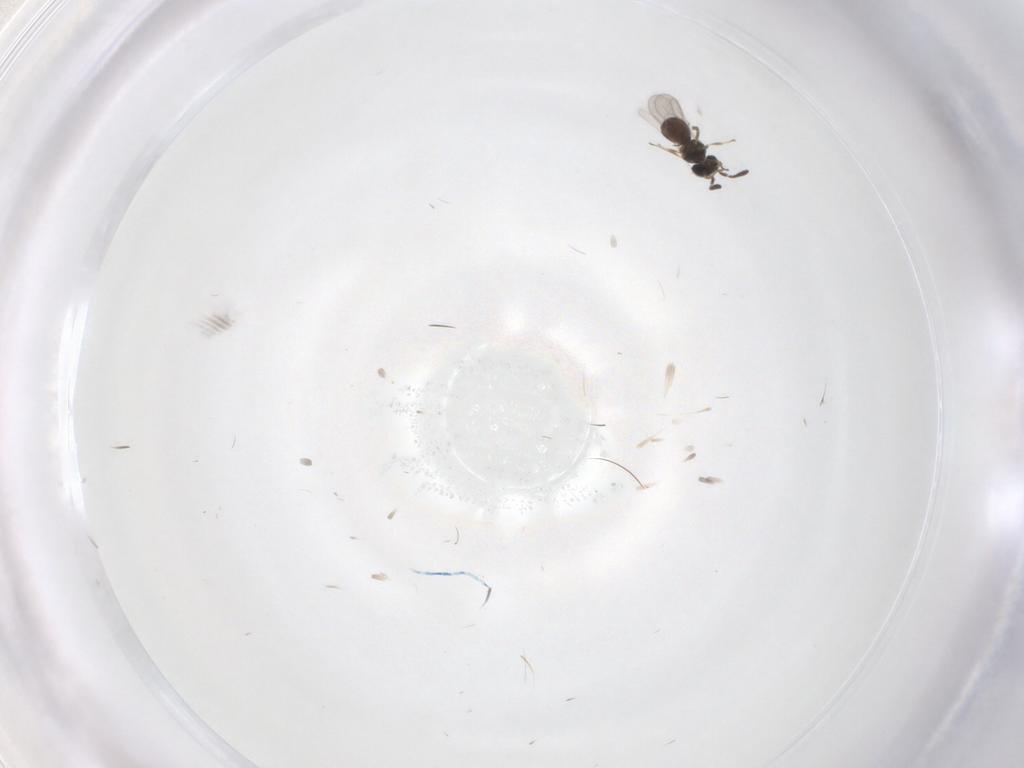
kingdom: Animalia
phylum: Arthropoda
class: Insecta
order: Hymenoptera
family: Scelionidae
